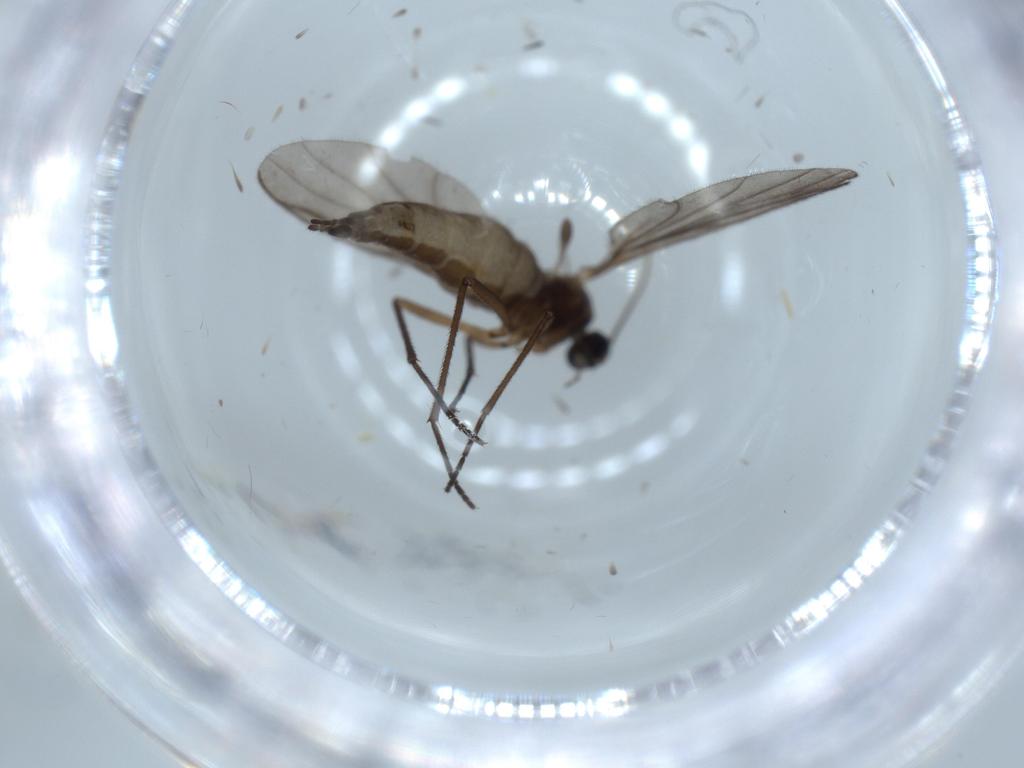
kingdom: Animalia
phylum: Arthropoda
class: Insecta
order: Diptera
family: Sciaridae
